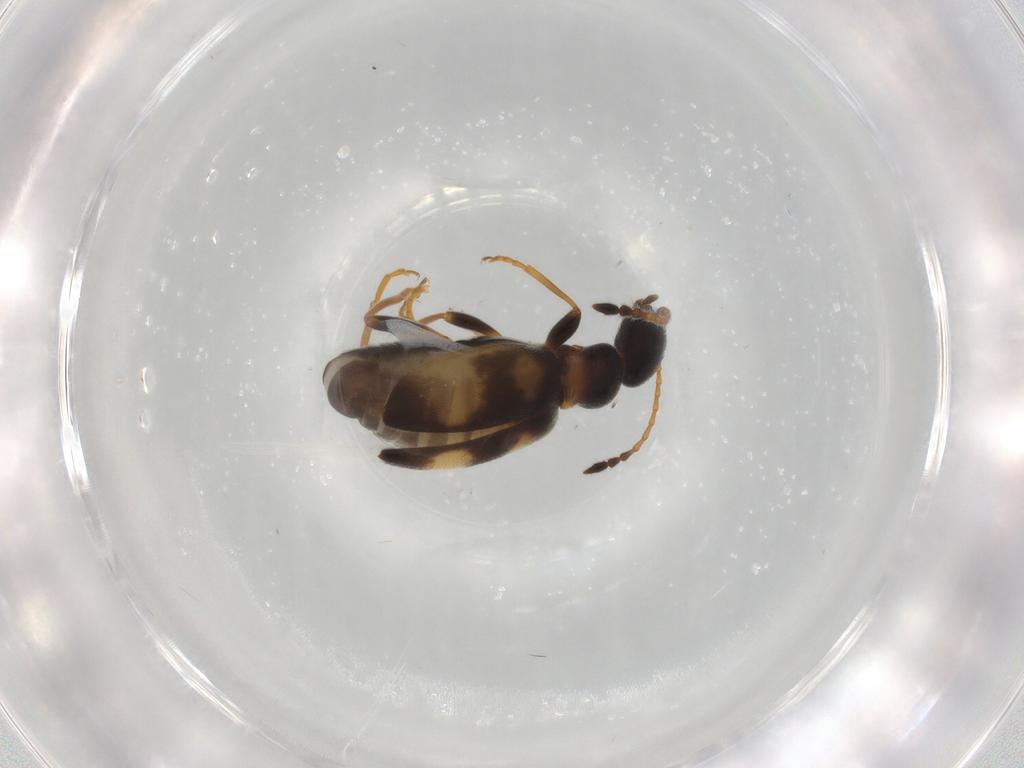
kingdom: Animalia
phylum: Arthropoda
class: Insecta
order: Coleoptera
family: Anthicidae
